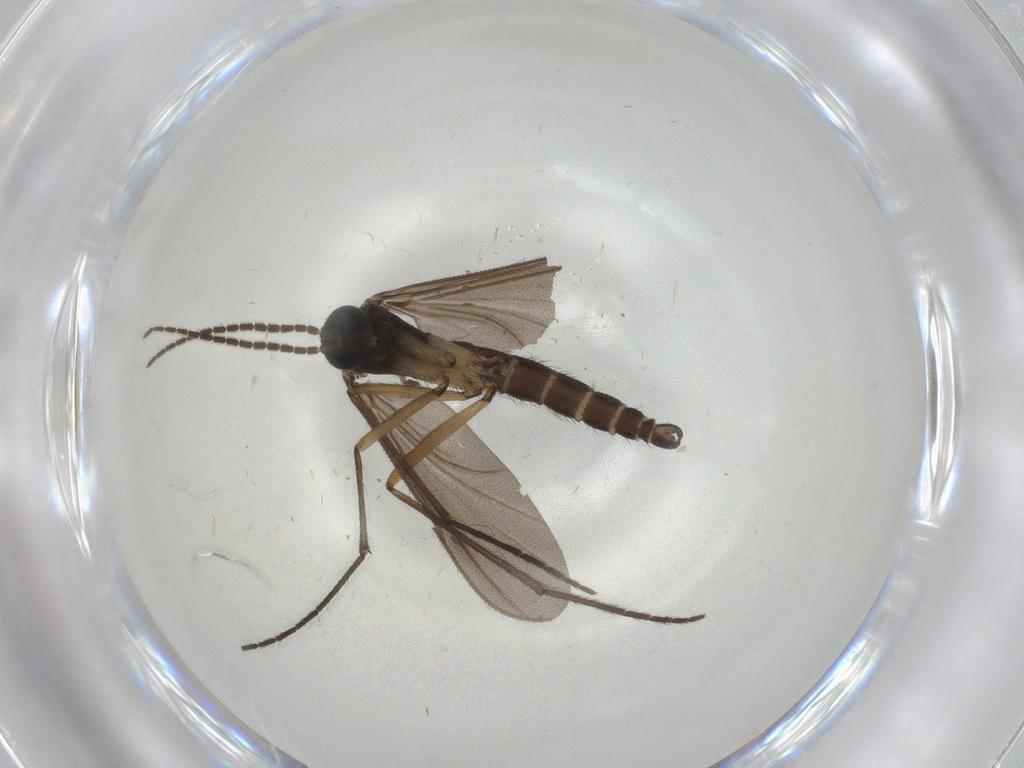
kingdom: Animalia
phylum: Arthropoda
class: Insecta
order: Diptera
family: Sciaridae
